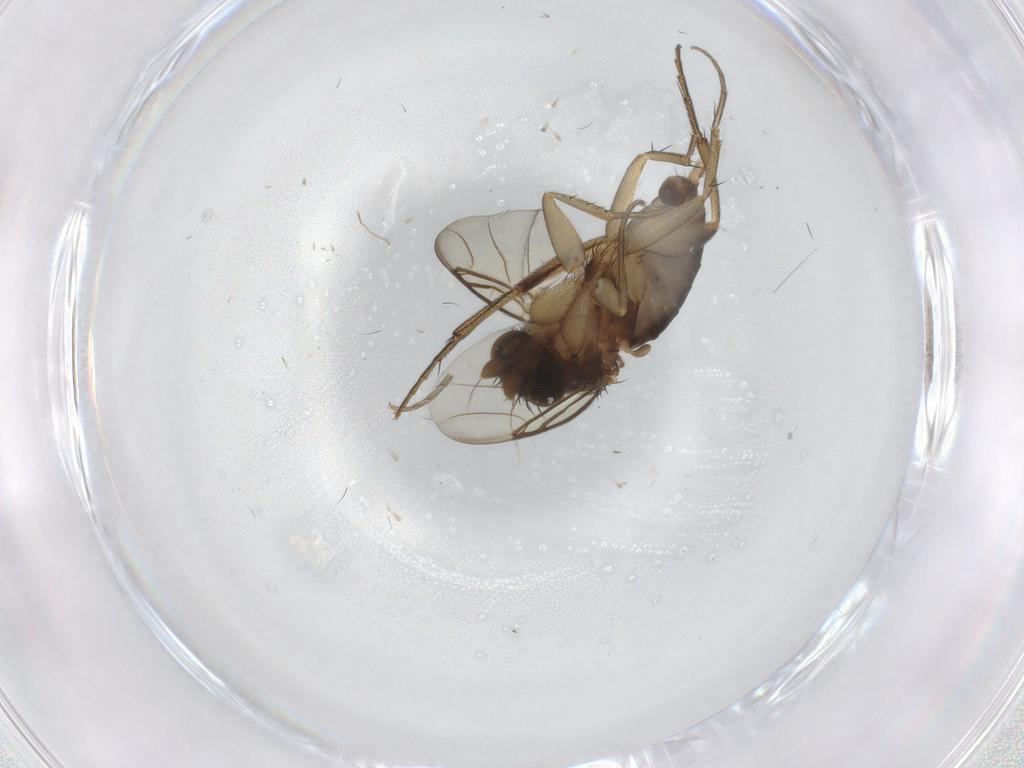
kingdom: Animalia
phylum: Arthropoda
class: Insecta
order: Diptera
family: Phoridae
